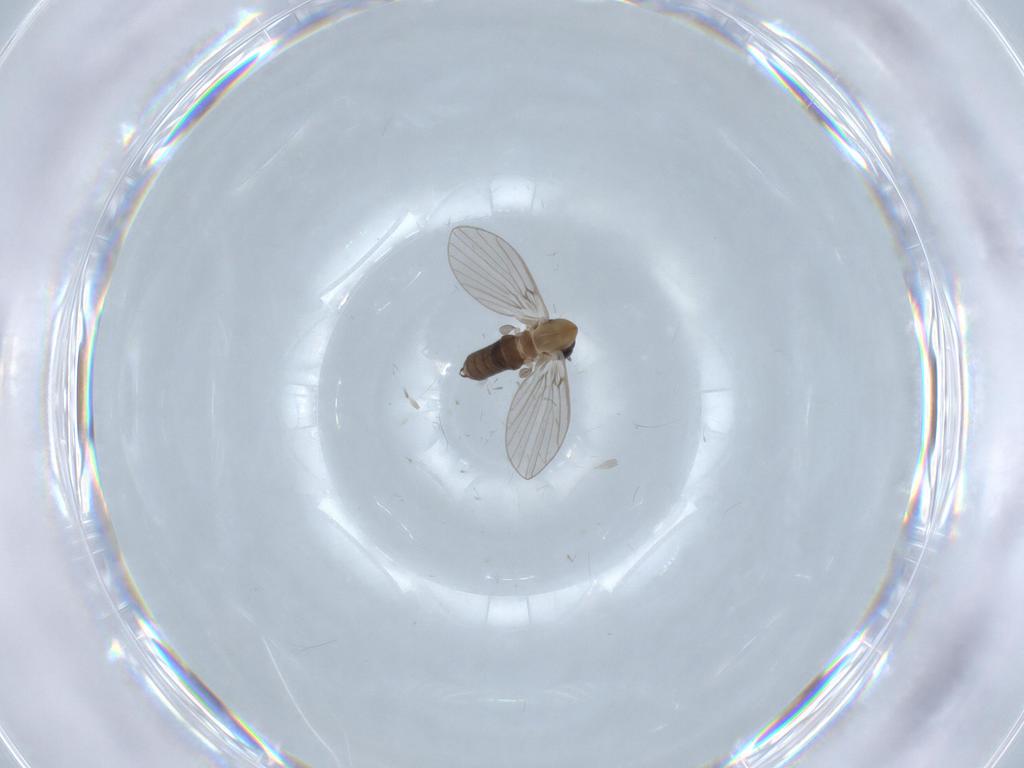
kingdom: Animalia
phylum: Arthropoda
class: Insecta
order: Diptera
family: Psychodidae
